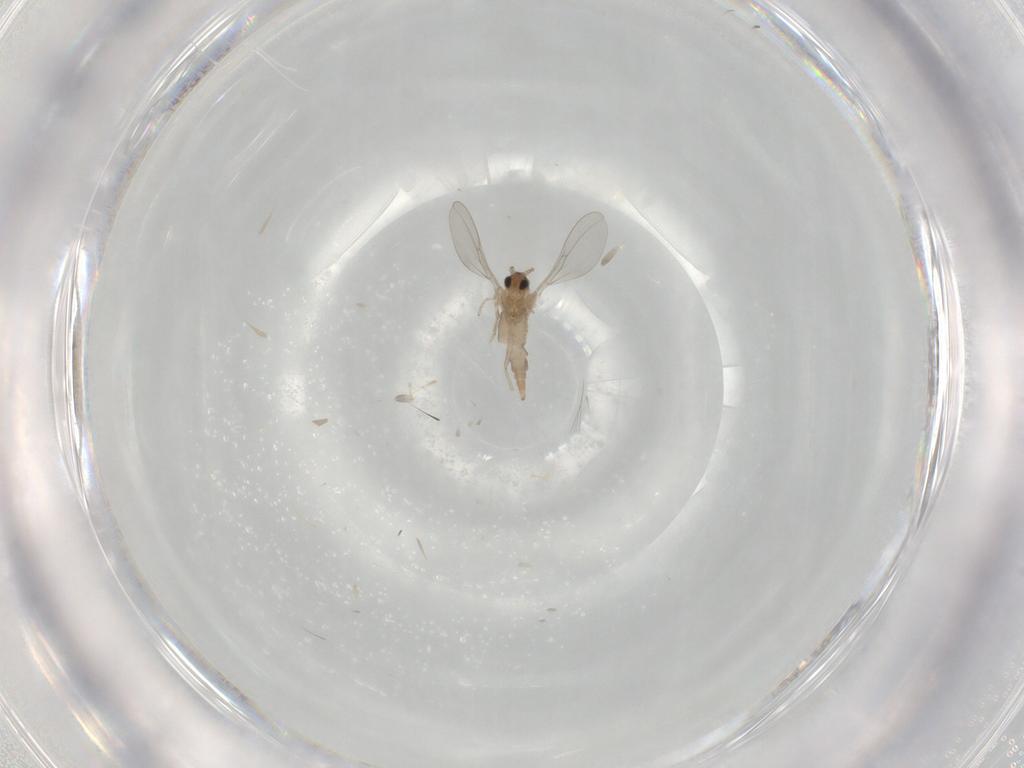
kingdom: Animalia
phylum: Arthropoda
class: Insecta
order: Diptera
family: Cecidomyiidae
